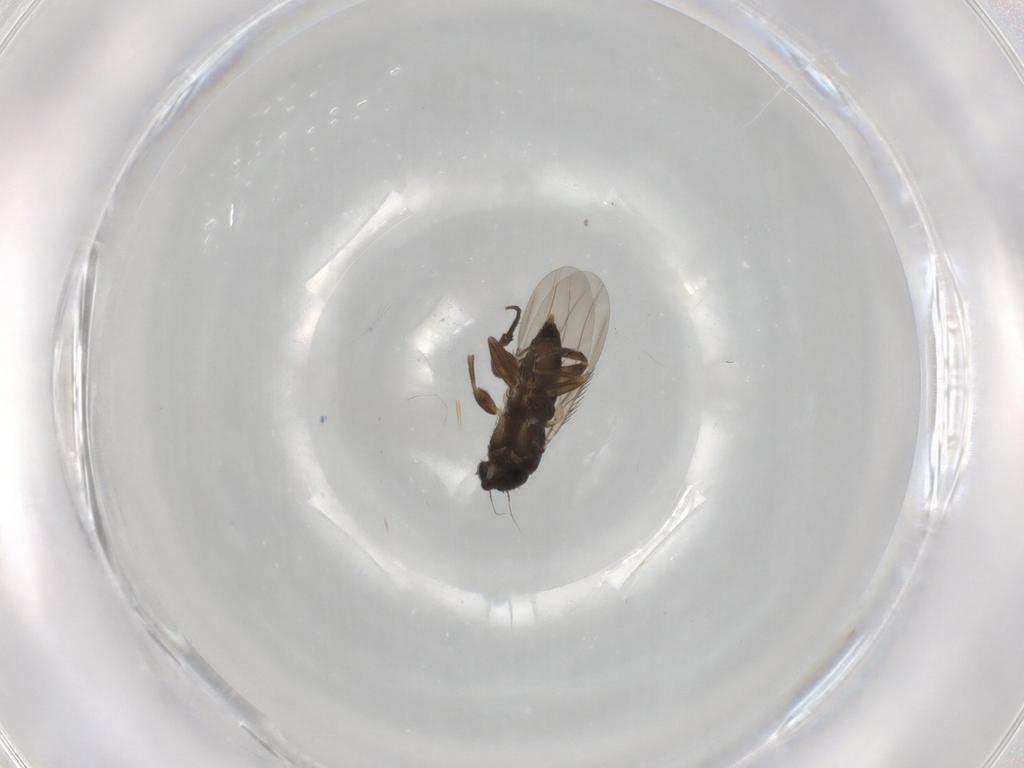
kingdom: Animalia
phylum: Arthropoda
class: Insecta
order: Diptera
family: Phoridae
